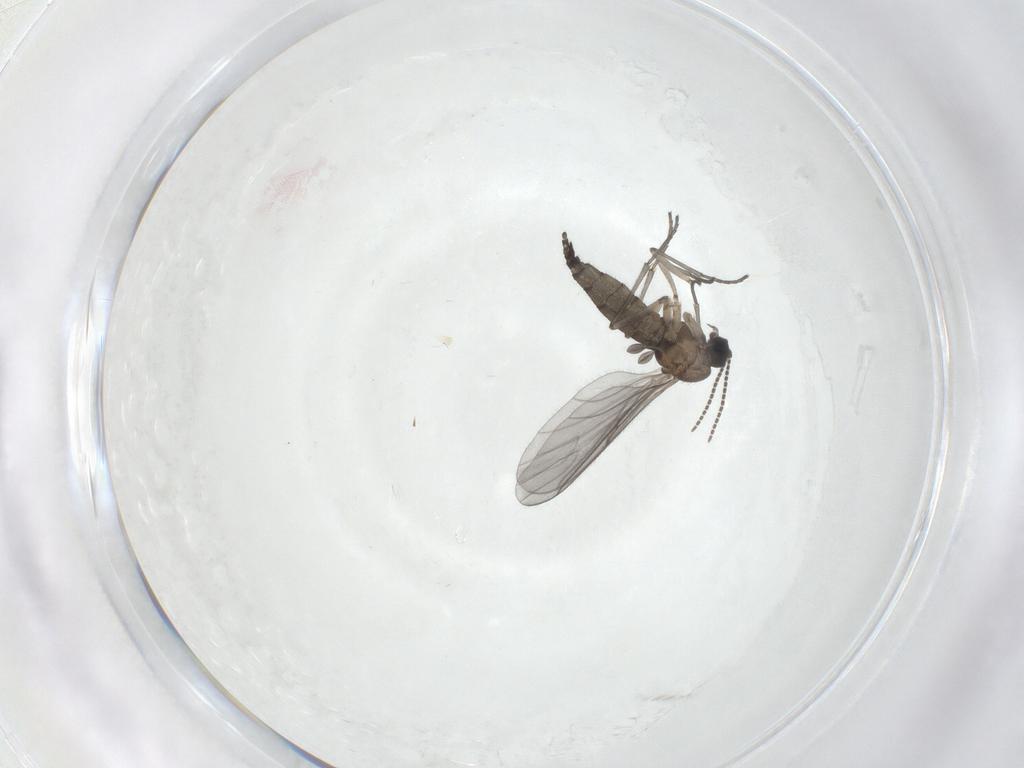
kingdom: Animalia
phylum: Arthropoda
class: Insecta
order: Diptera
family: Sciaridae
